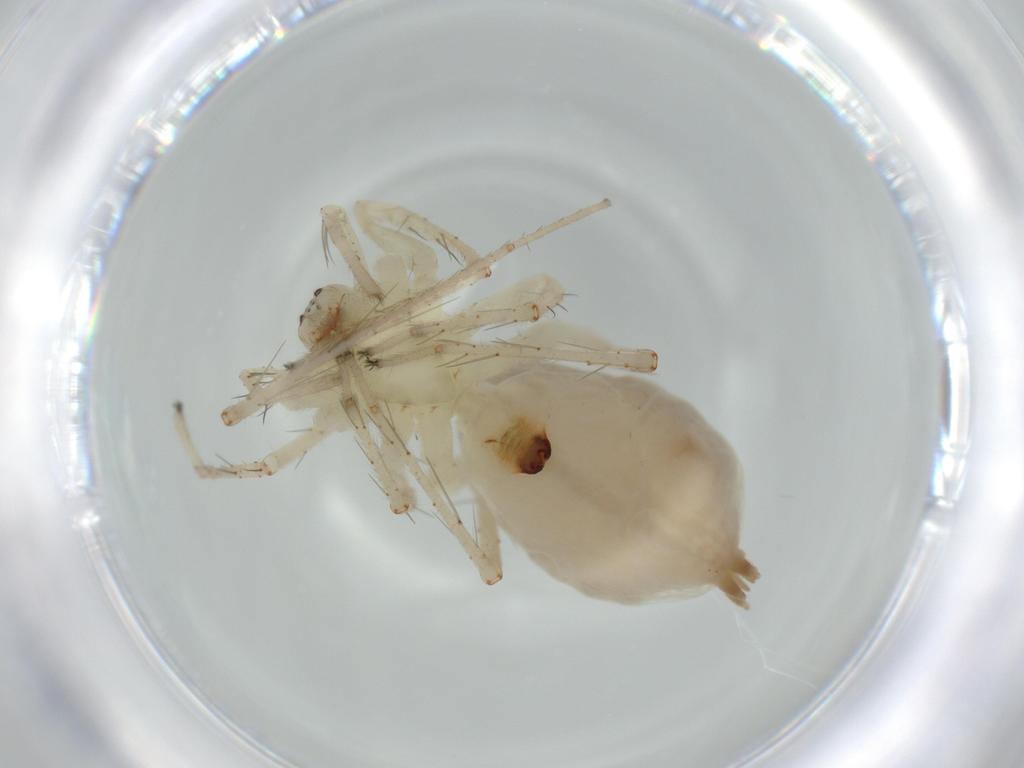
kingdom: Animalia
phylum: Arthropoda
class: Arachnida
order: Araneae
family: Anyphaenidae
